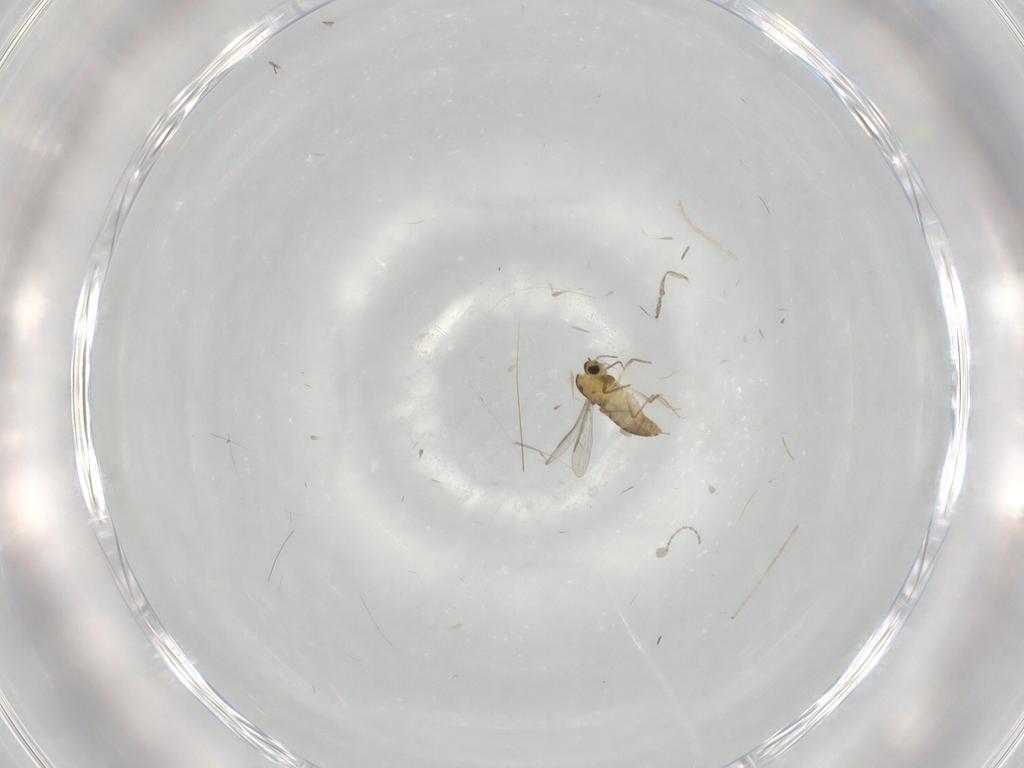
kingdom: Animalia
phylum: Arthropoda
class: Insecta
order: Diptera
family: Chironomidae
